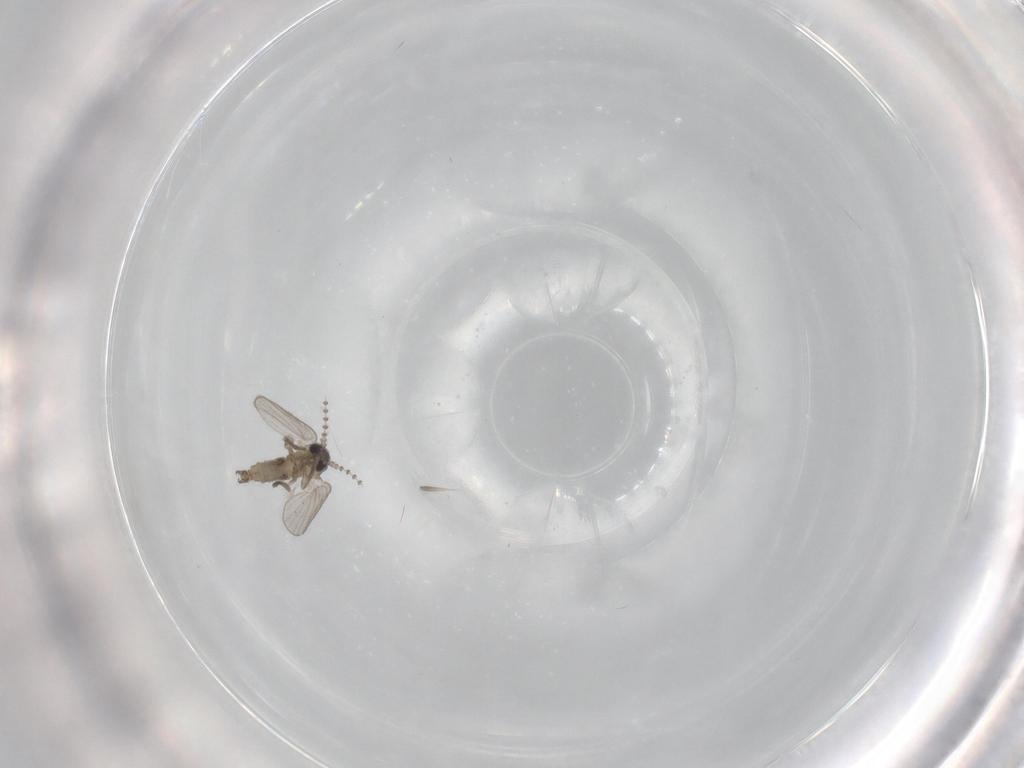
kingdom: Animalia
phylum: Arthropoda
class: Insecta
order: Diptera
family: Psychodidae
